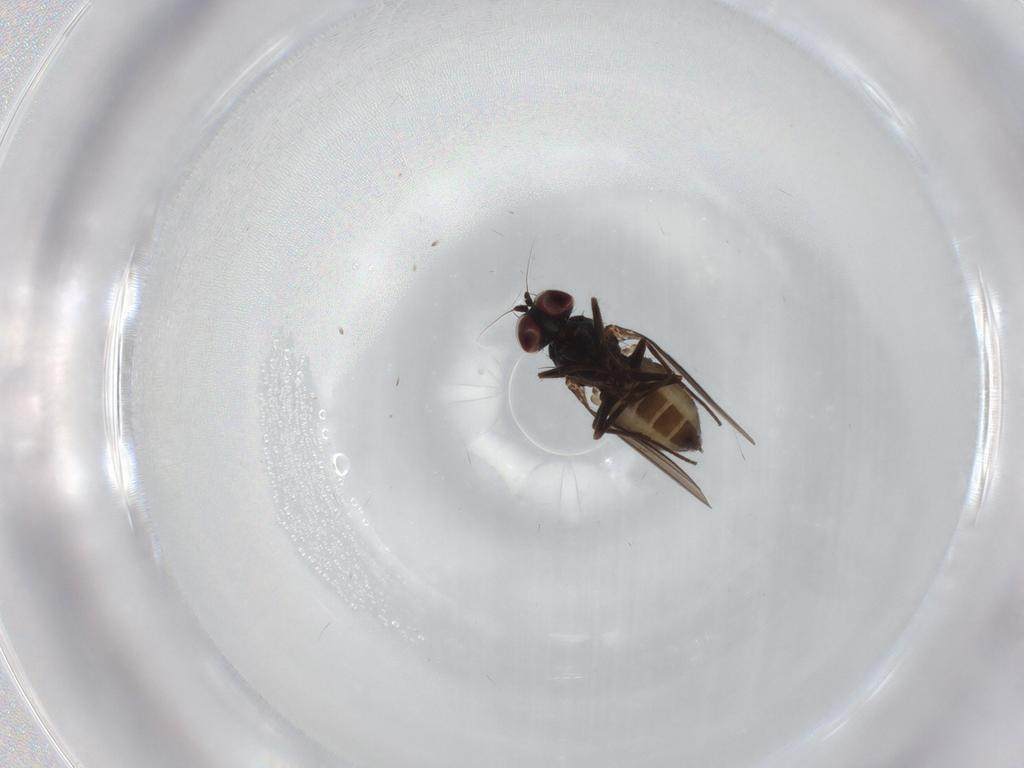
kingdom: Animalia
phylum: Arthropoda
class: Insecta
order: Diptera
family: Dolichopodidae
